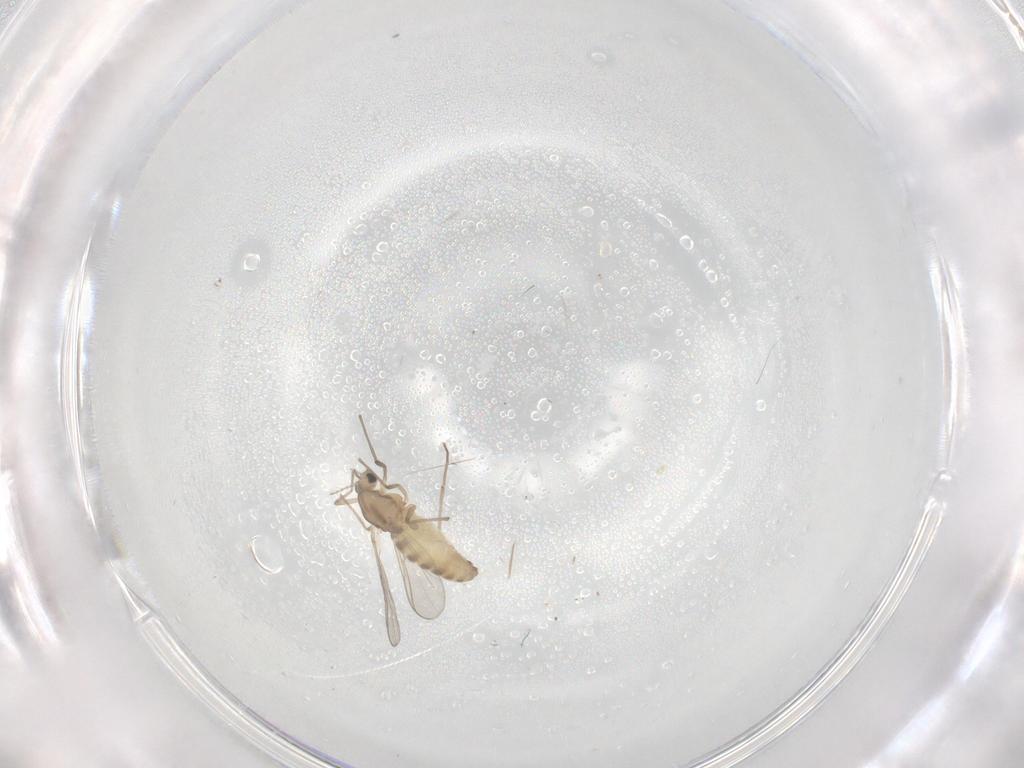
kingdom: Animalia
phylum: Arthropoda
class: Insecta
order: Diptera
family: Chironomidae
